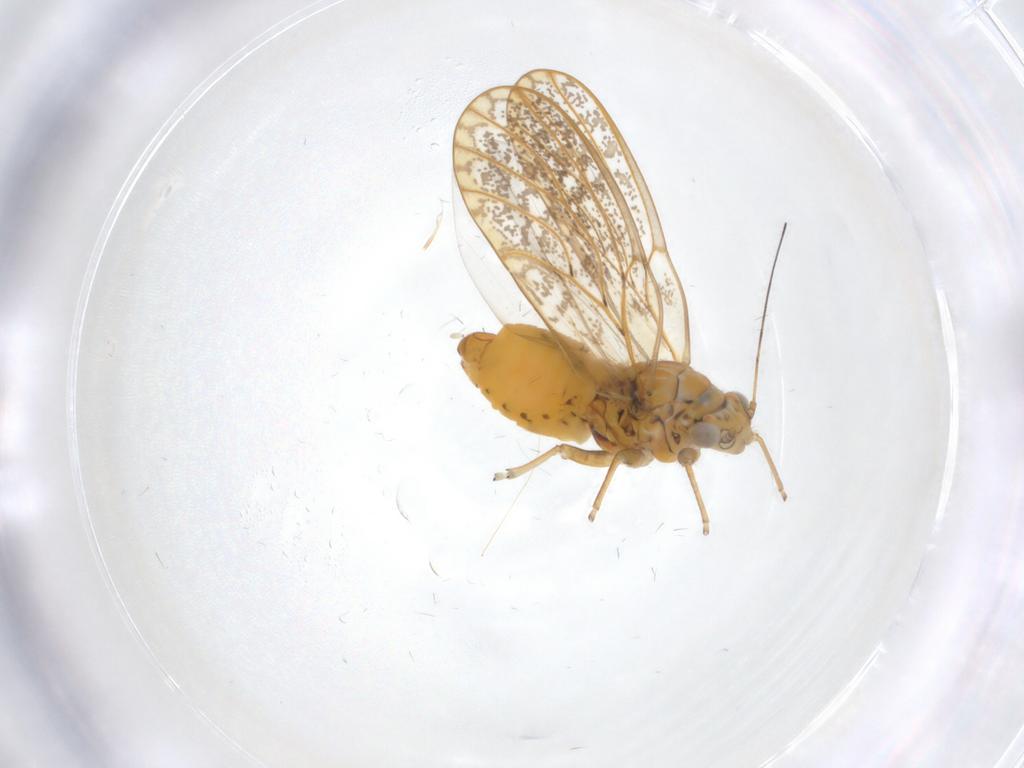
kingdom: Animalia
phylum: Arthropoda
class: Insecta
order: Hemiptera
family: Psyllidae
